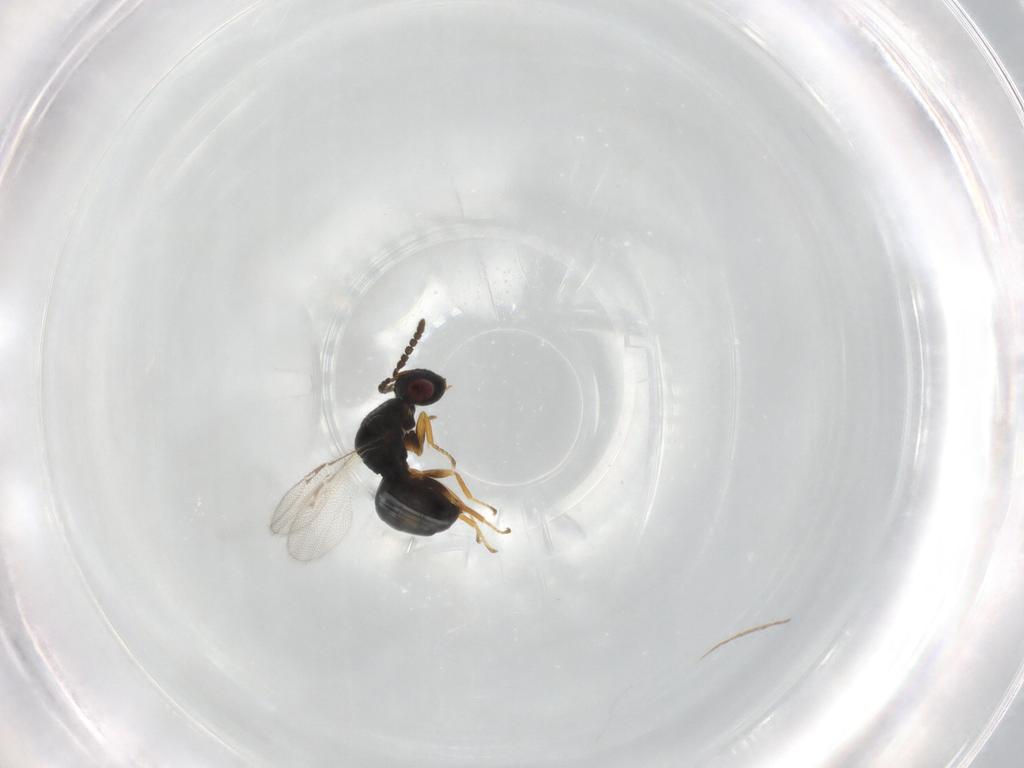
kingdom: Animalia
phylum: Arthropoda
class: Insecta
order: Hymenoptera
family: Eurytomidae
